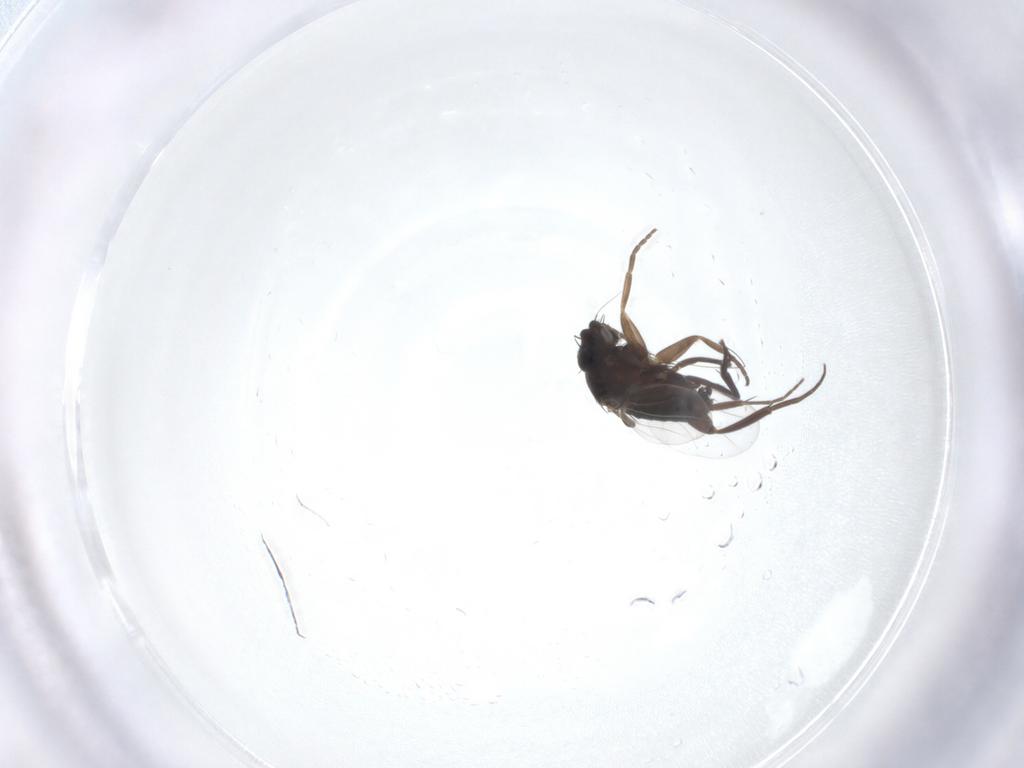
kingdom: Animalia
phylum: Arthropoda
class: Insecta
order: Diptera
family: Phoridae
